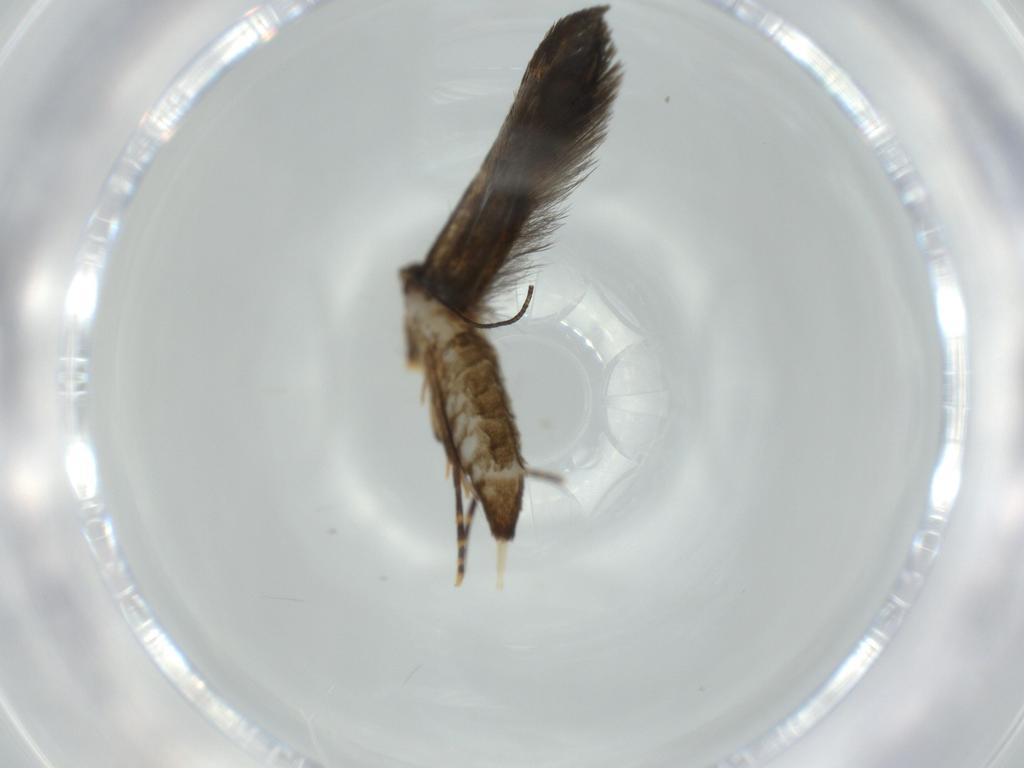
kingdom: Animalia
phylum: Arthropoda
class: Insecta
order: Lepidoptera
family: Tineidae
